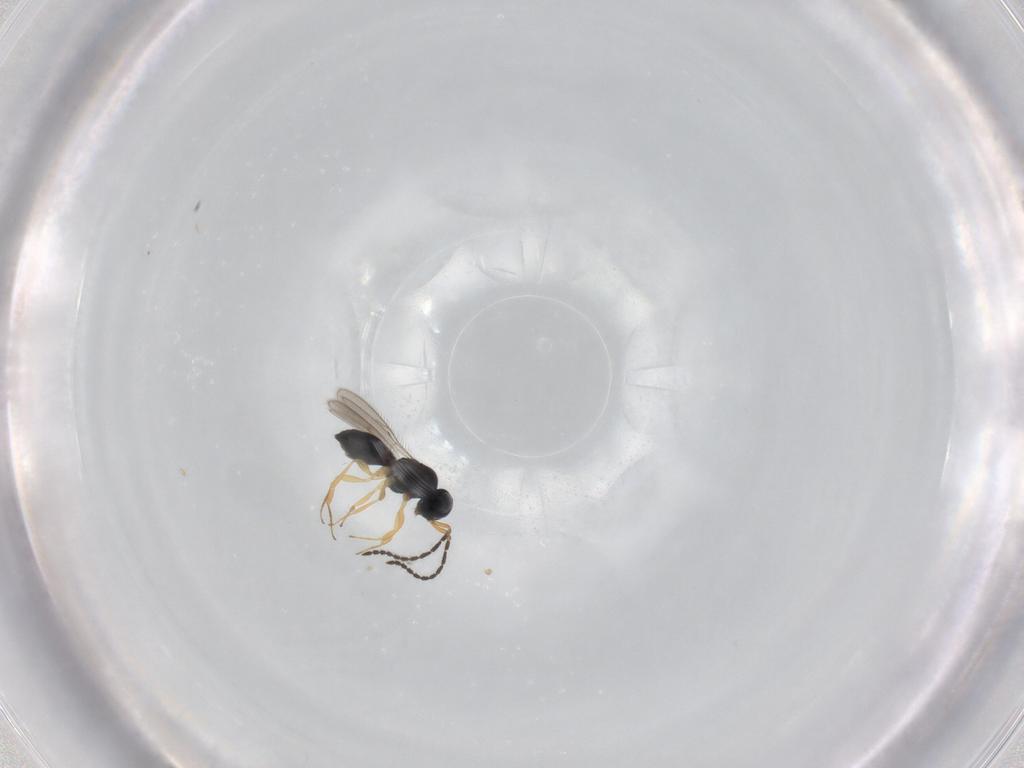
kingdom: Animalia
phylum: Arthropoda
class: Insecta
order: Hymenoptera
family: Scelionidae
